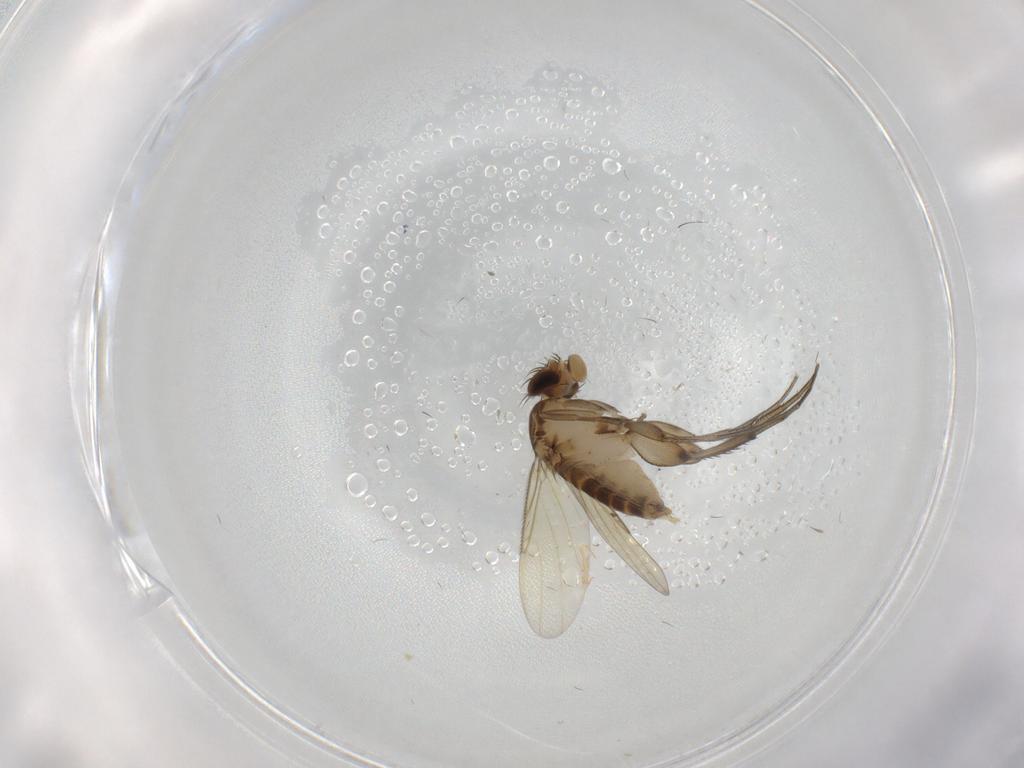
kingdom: Animalia
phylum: Arthropoda
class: Insecta
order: Diptera
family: Phoridae
